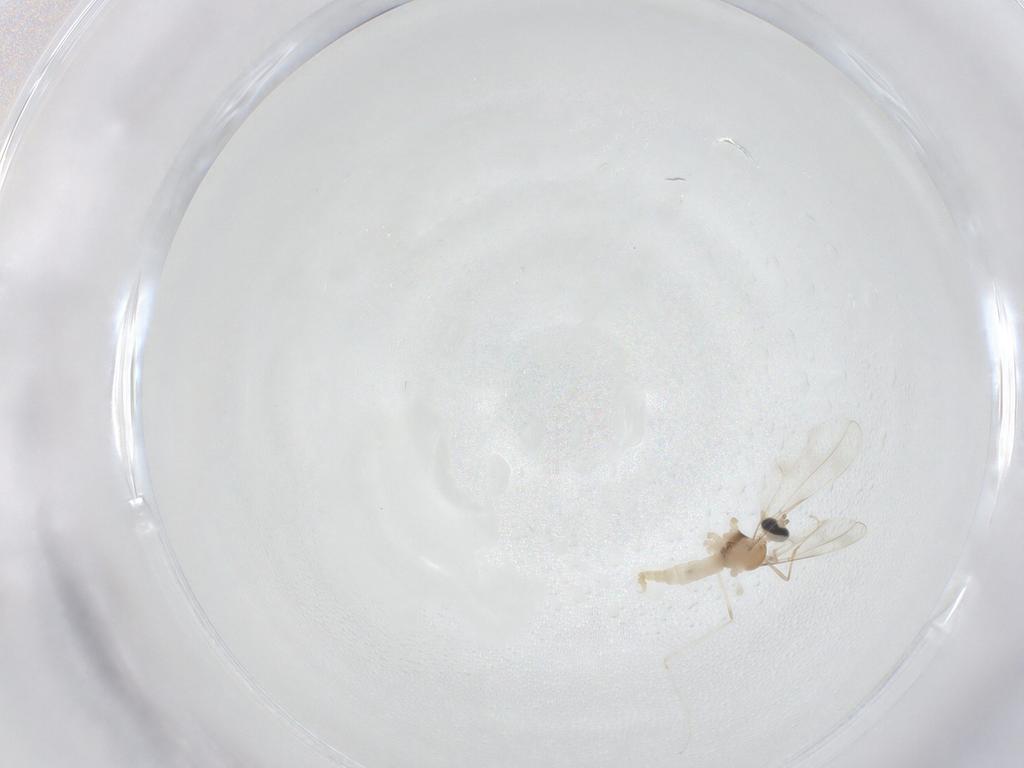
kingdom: Animalia
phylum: Arthropoda
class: Insecta
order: Diptera
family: Cecidomyiidae
